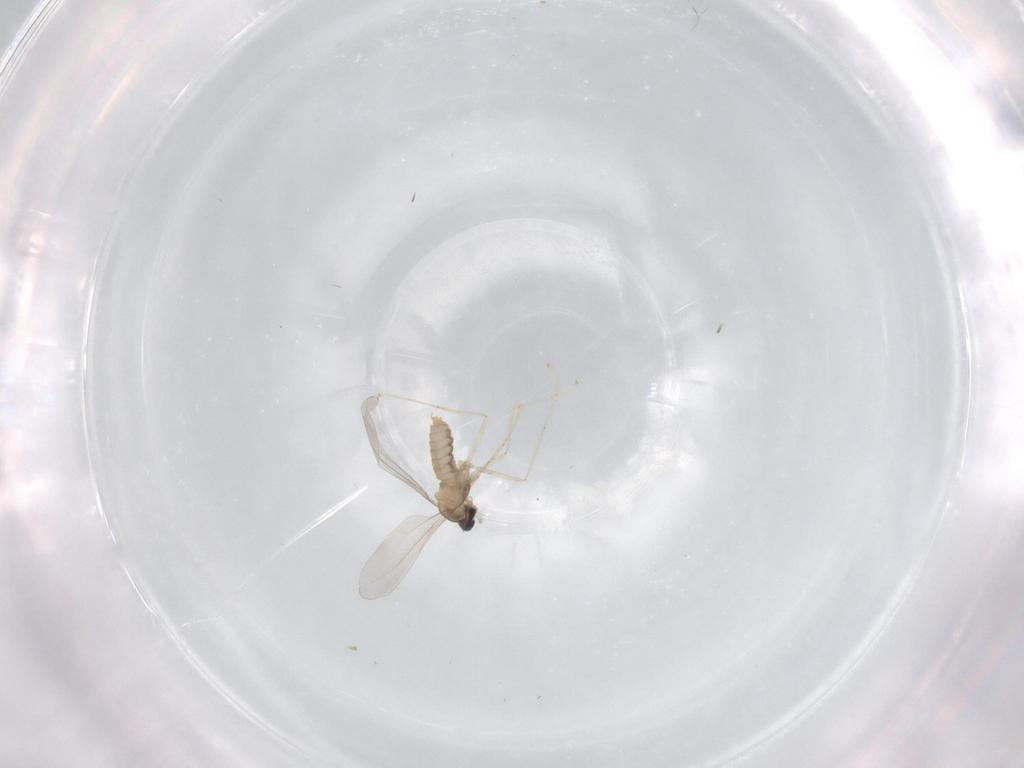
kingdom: Animalia
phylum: Arthropoda
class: Insecta
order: Diptera
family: Cecidomyiidae
